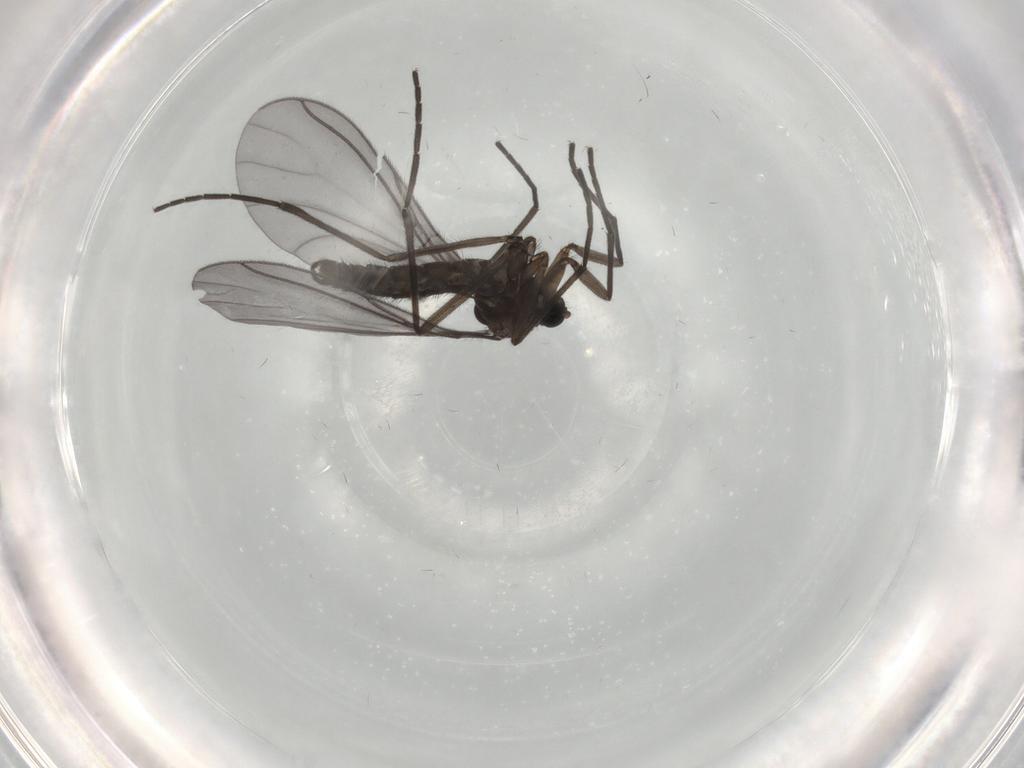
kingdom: Animalia
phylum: Arthropoda
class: Insecta
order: Diptera
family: Sciaridae
